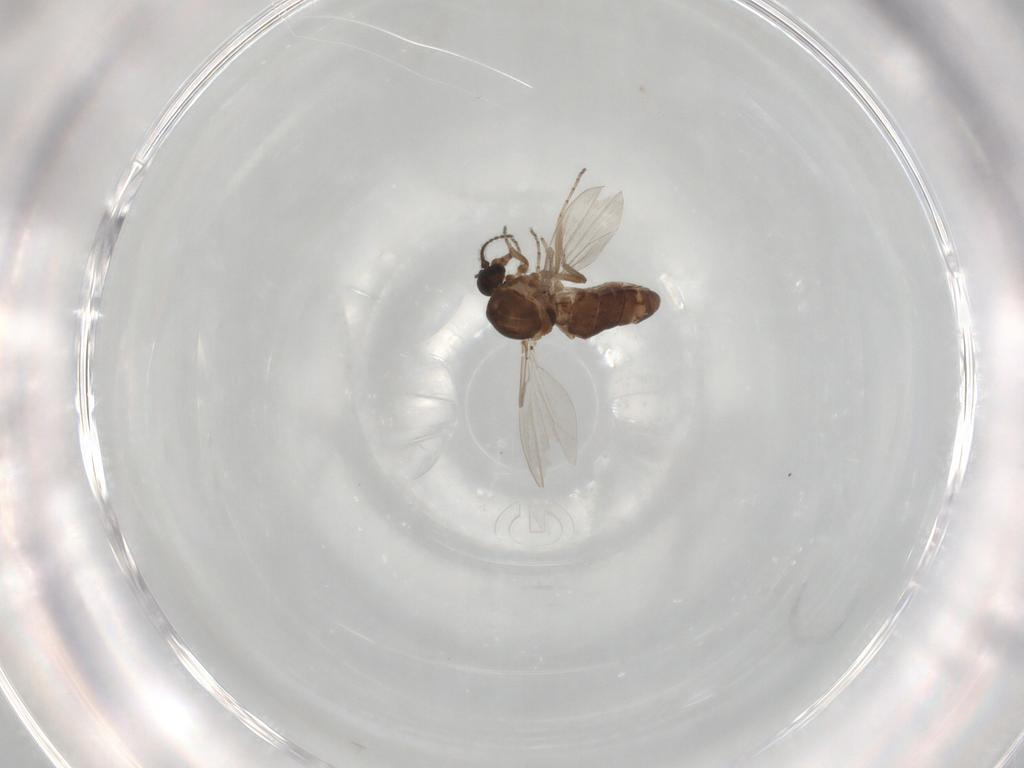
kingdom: Animalia
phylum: Arthropoda
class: Insecta
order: Diptera
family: Ceratopogonidae
